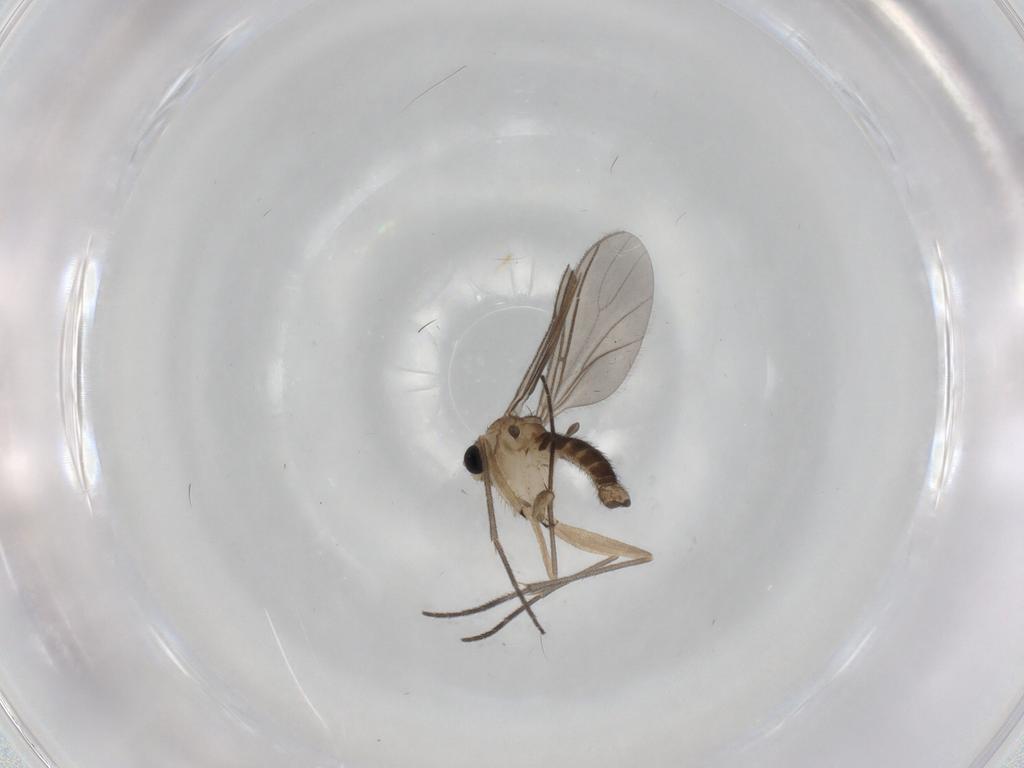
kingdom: Animalia
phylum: Arthropoda
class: Insecta
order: Diptera
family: Sciaridae
